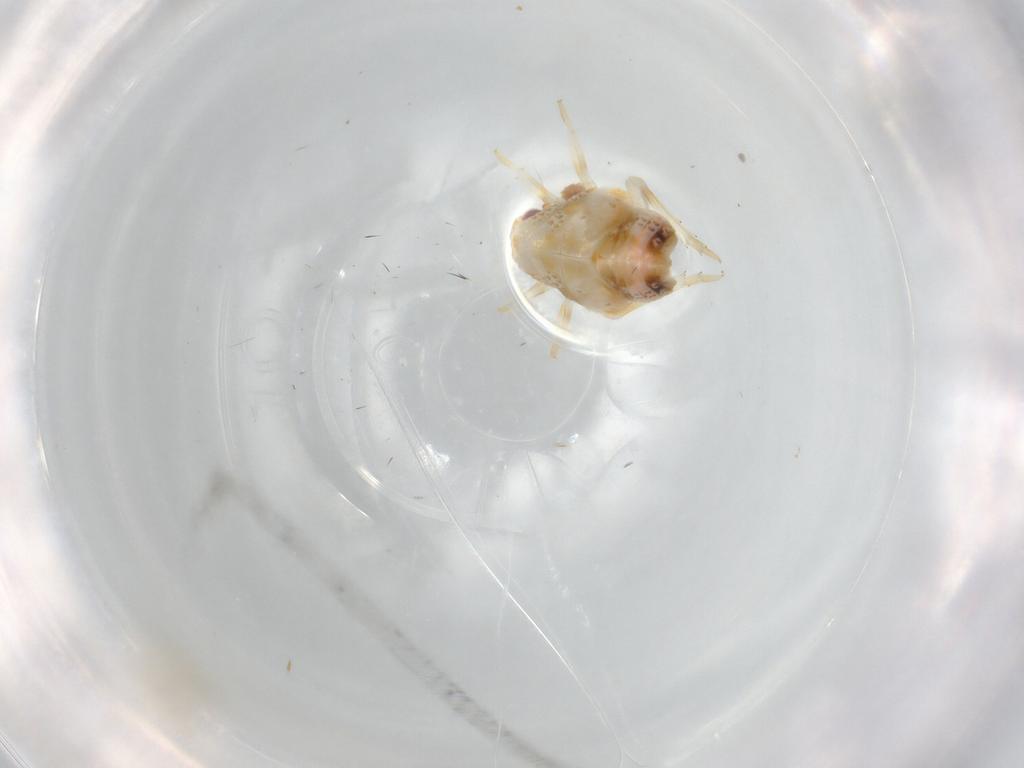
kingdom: Animalia
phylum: Arthropoda
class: Insecta
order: Hemiptera
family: Flatidae
